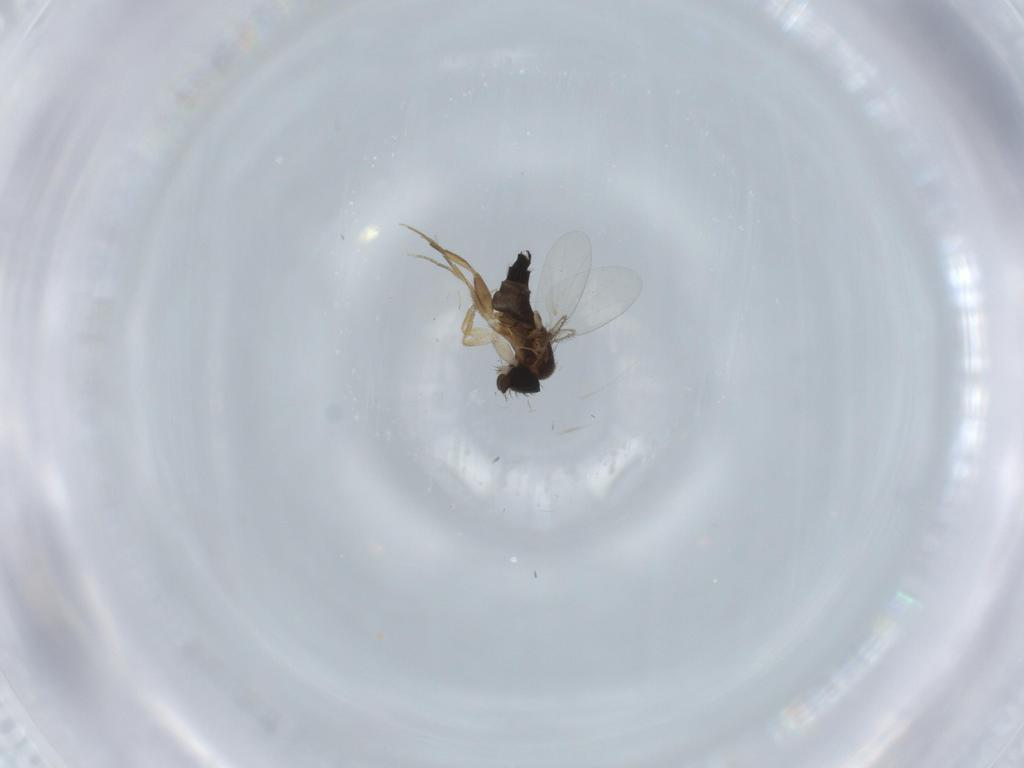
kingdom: Animalia
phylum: Arthropoda
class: Insecta
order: Diptera
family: Phoridae
